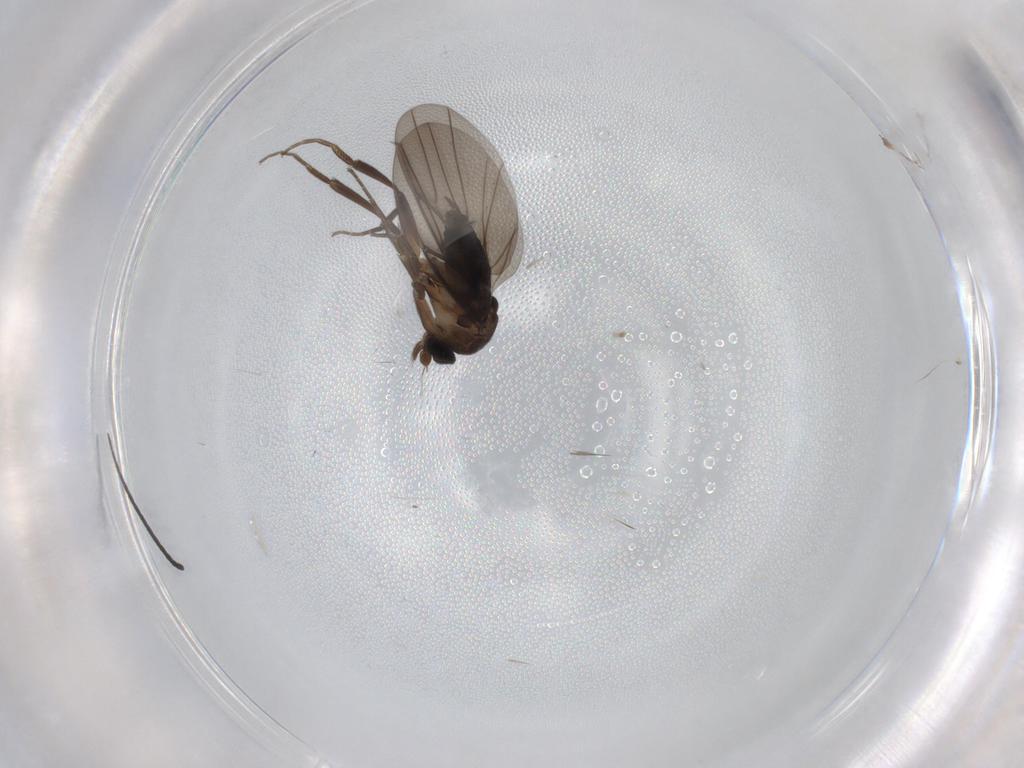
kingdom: Animalia
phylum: Arthropoda
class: Insecta
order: Diptera
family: Phoridae
